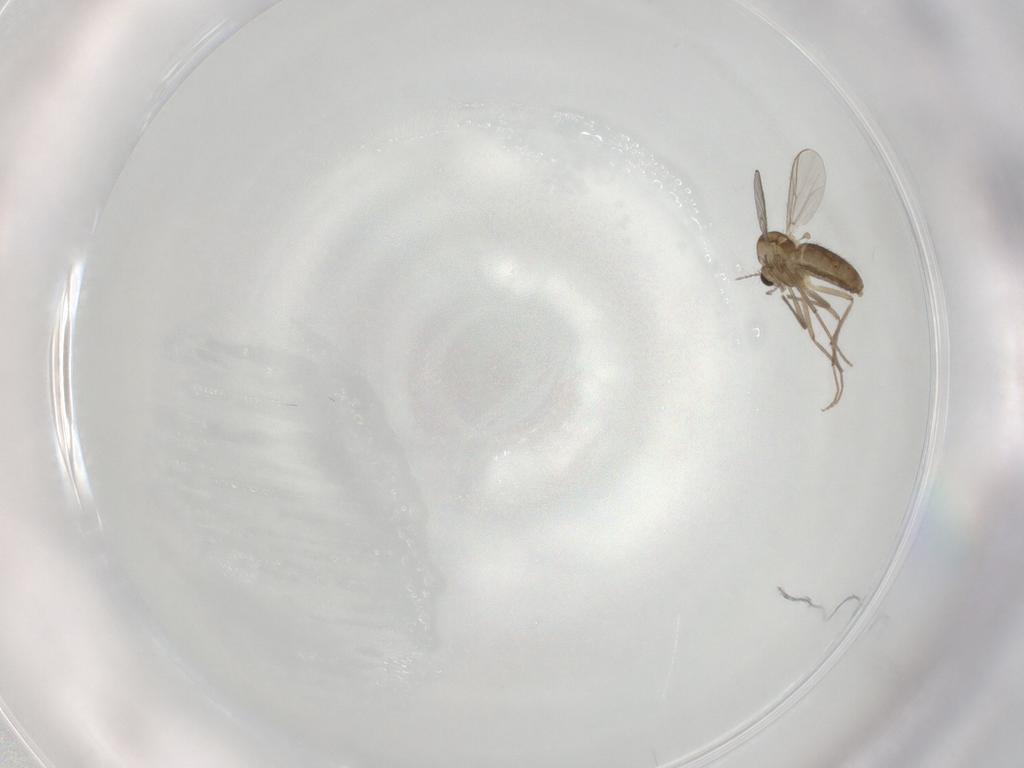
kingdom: Animalia
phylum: Arthropoda
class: Insecta
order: Diptera
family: Chironomidae
